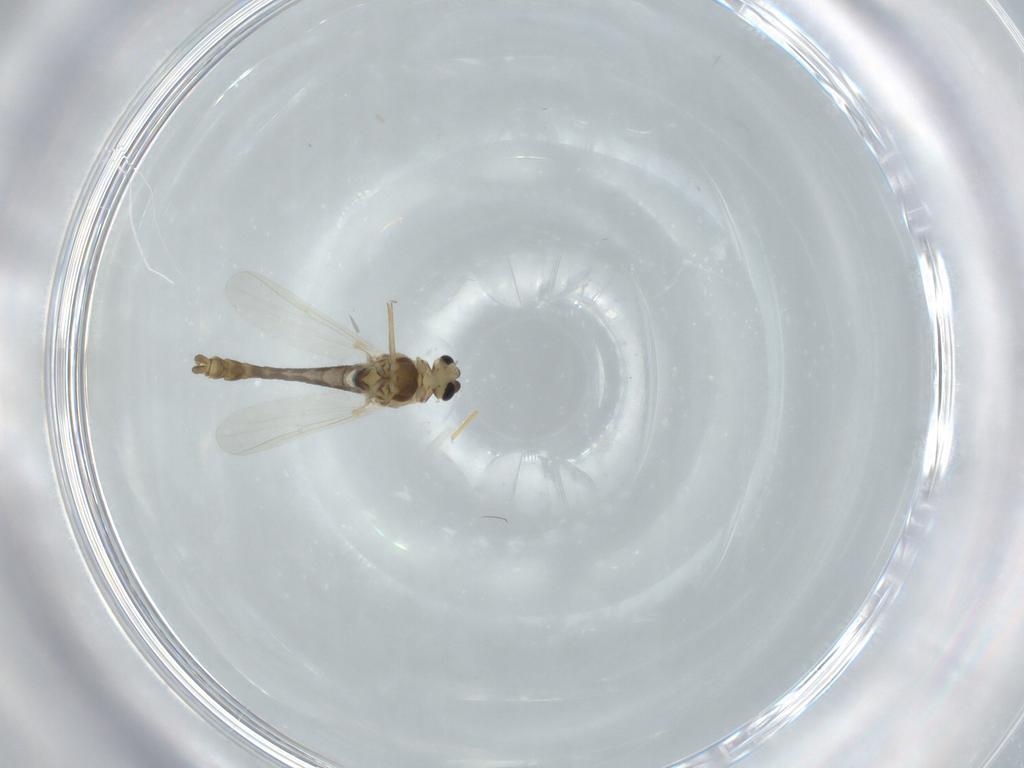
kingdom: Animalia
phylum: Arthropoda
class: Insecta
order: Diptera
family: Chironomidae
